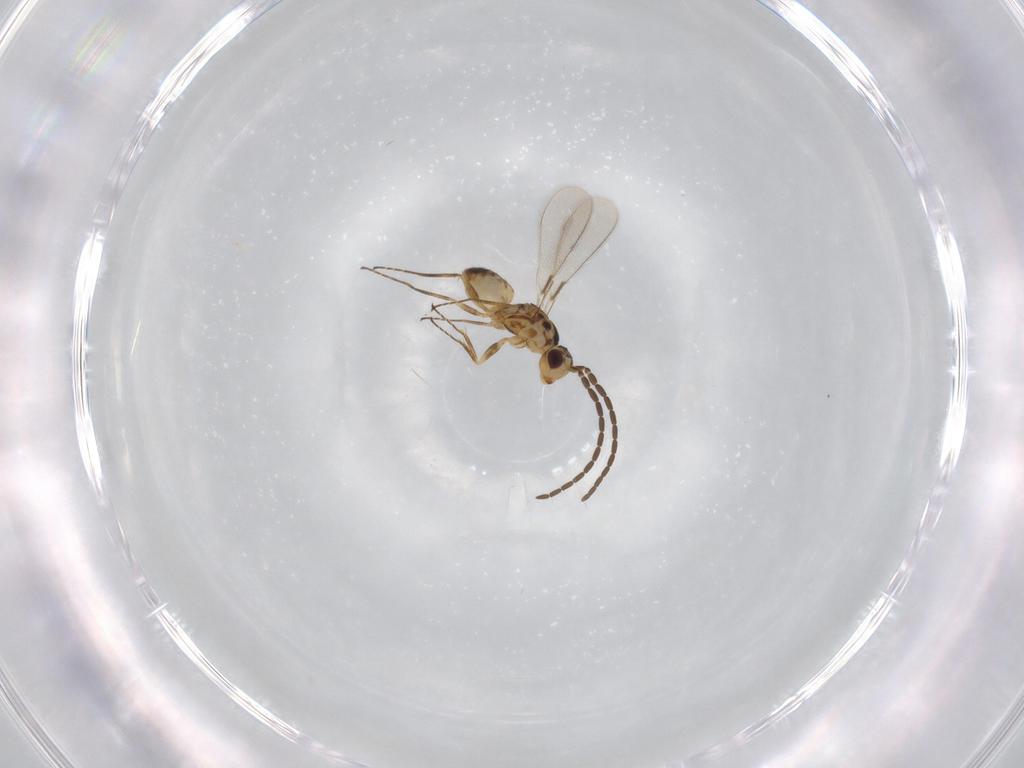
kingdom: Animalia
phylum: Arthropoda
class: Insecta
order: Hymenoptera
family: Mymaridae
